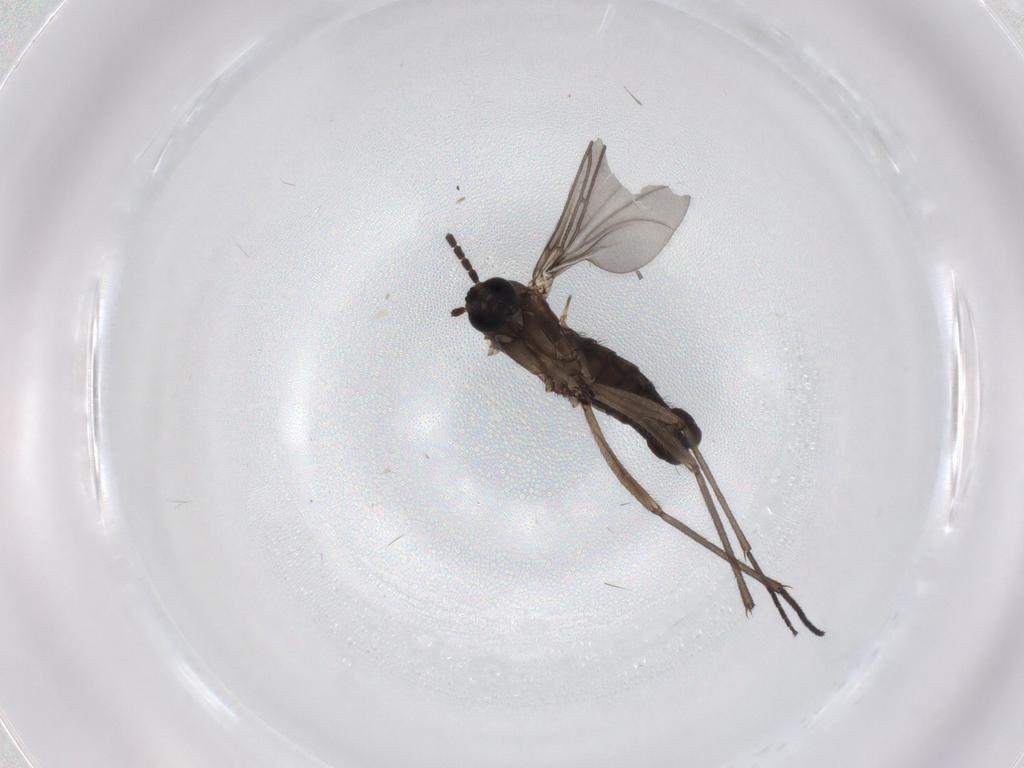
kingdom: Animalia
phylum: Arthropoda
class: Insecta
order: Diptera
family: Sciaridae
